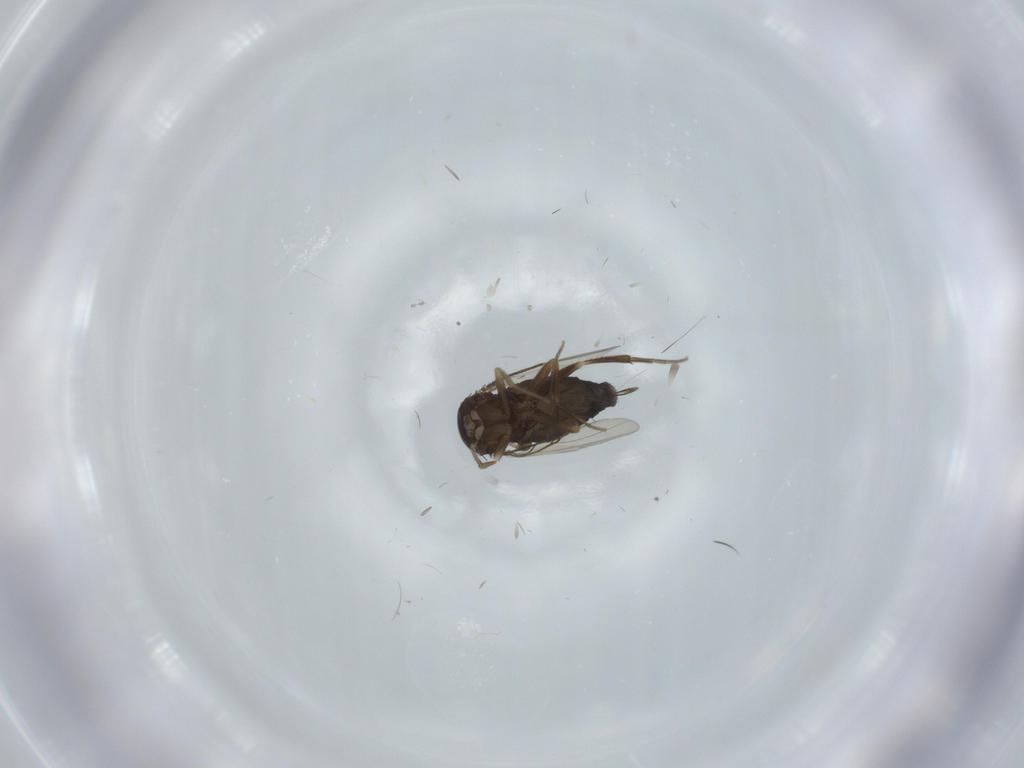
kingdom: Animalia
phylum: Arthropoda
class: Insecta
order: Diptera
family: Phoridae
